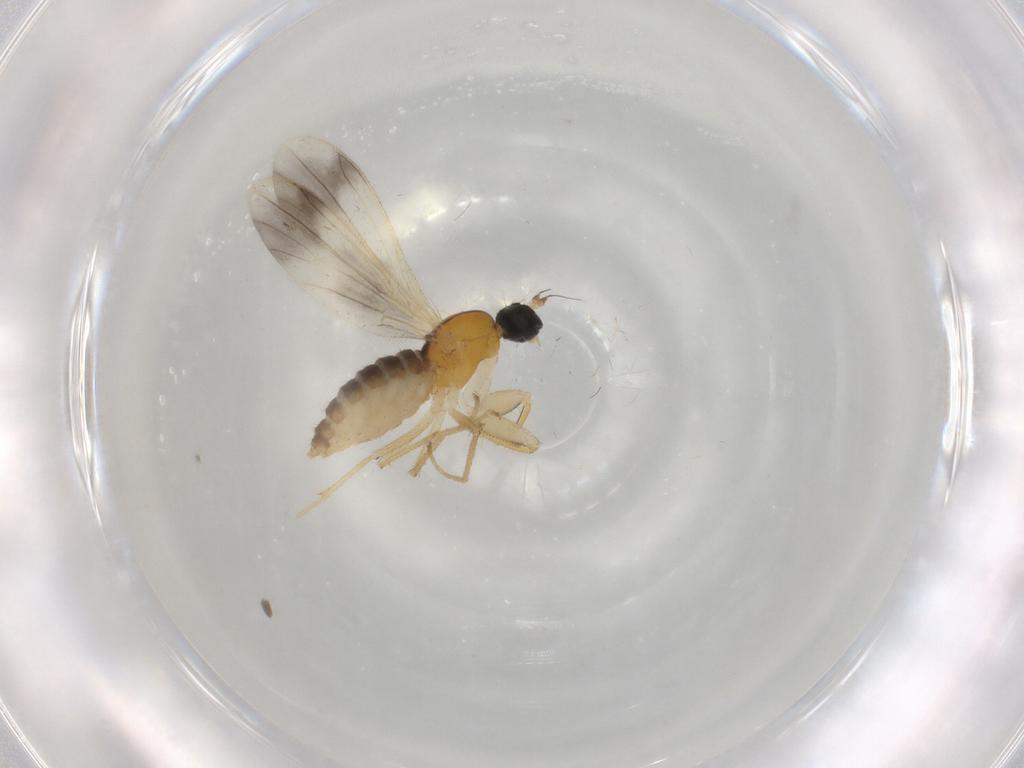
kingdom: Animalia
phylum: Arthropoda
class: Insecta
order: Diptera
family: Empididae
